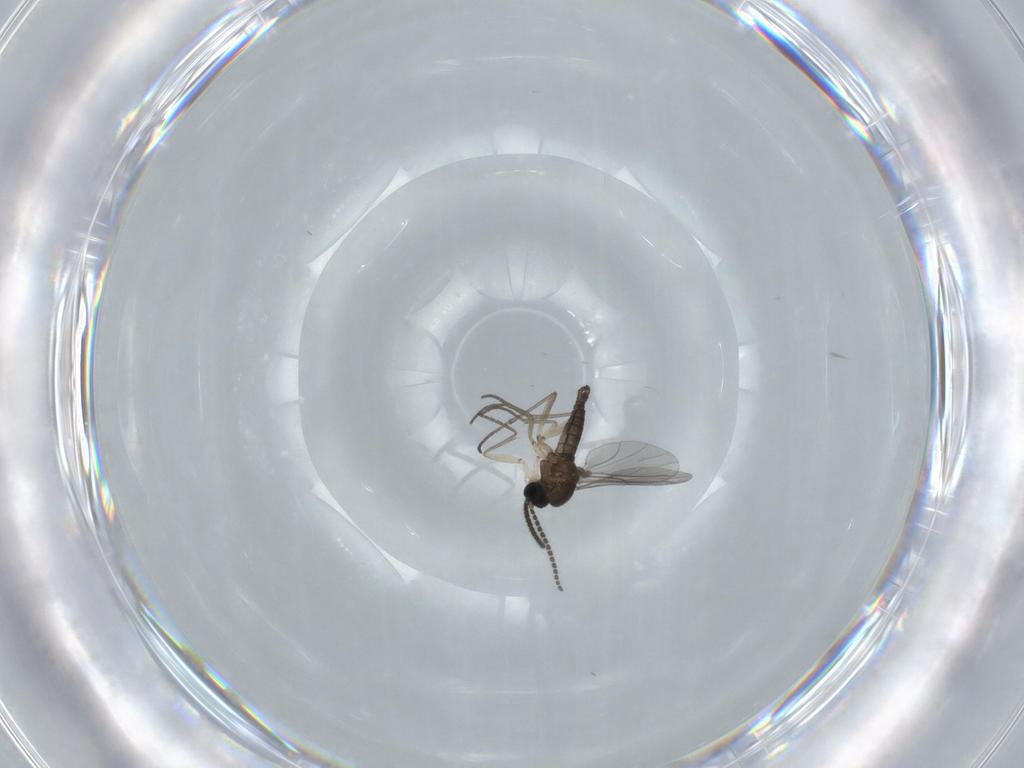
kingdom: Animalia
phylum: Arthropoda
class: Insecta
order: Diptera
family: Sciaridae
